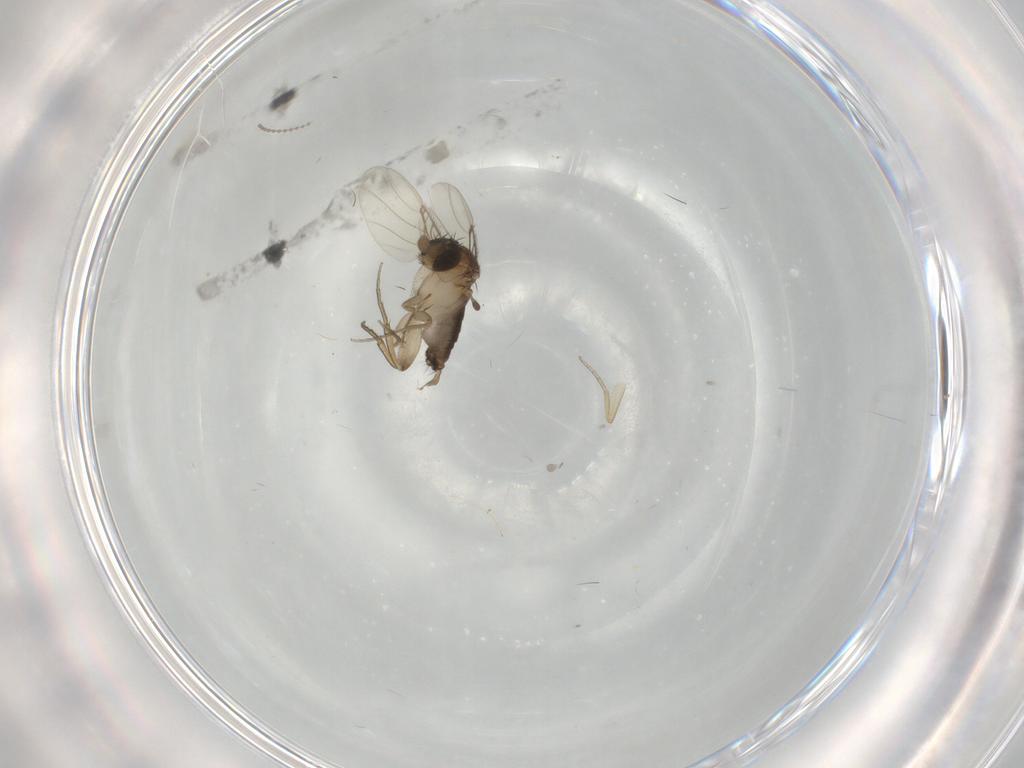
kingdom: Animalia
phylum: Arthropoda
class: Insecta
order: Diptera
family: Cecidomyiidae
